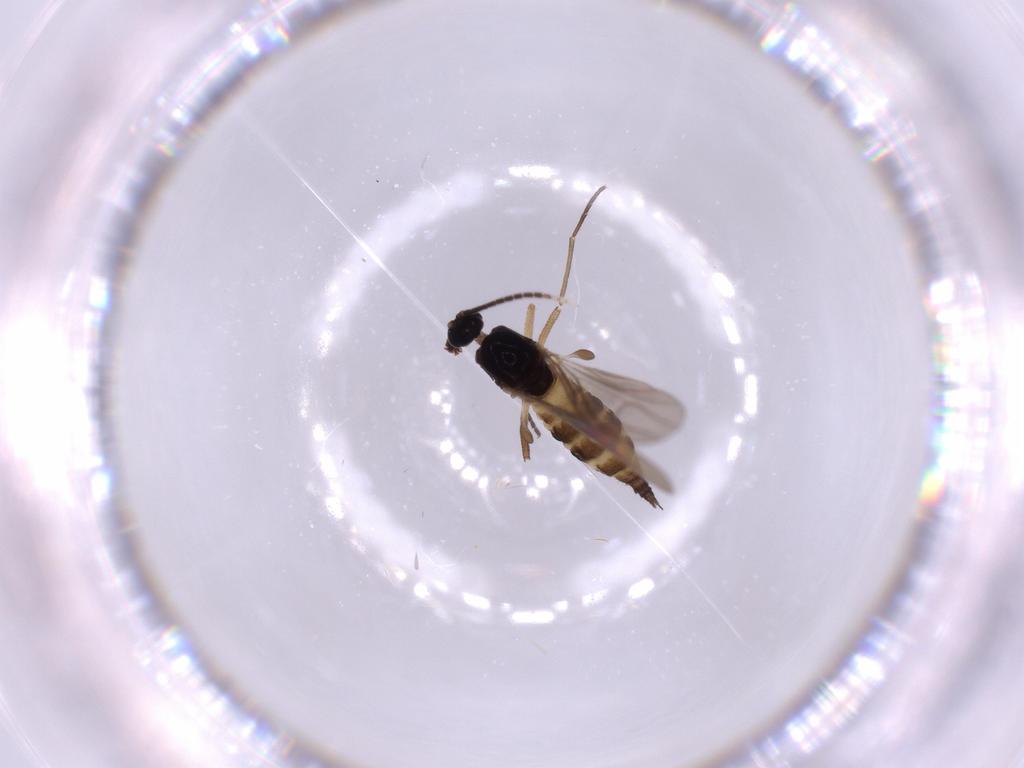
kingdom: Animalia
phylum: Arthropoda
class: Insecta
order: Diptera
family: Sciaridae
